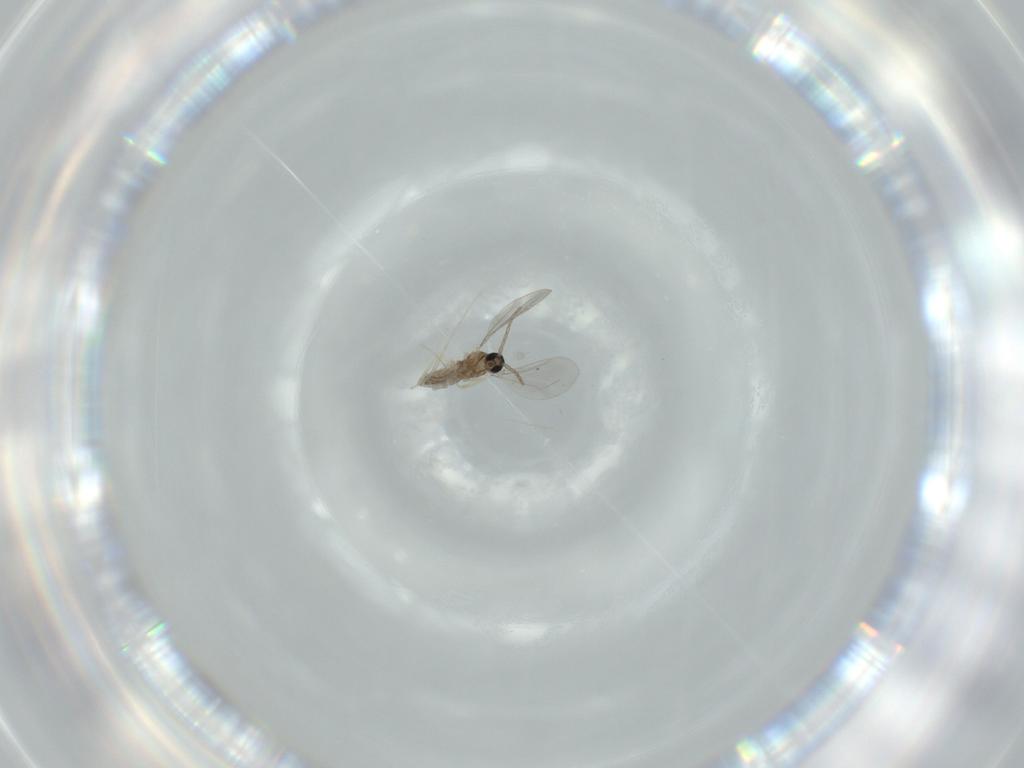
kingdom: Animalia
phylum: Arthropoda
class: Insecta
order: Diptera
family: Cecidomyiidae
